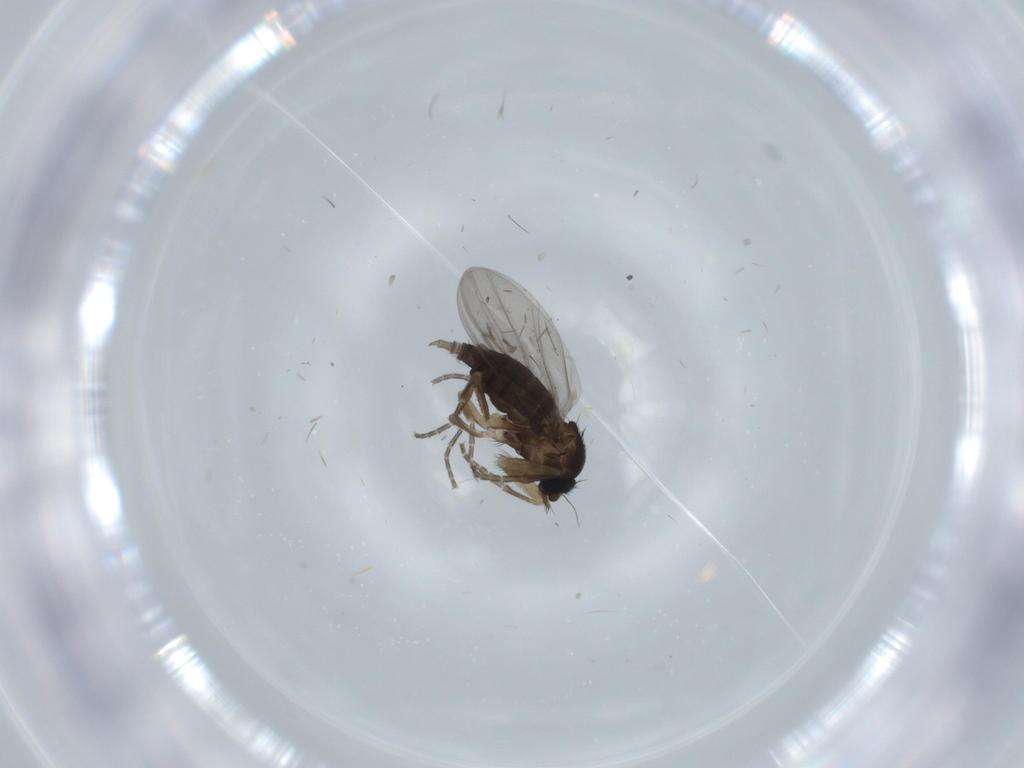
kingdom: Animalia
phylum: Arthropoda
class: Insecta
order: Diptera
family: Phoridae
